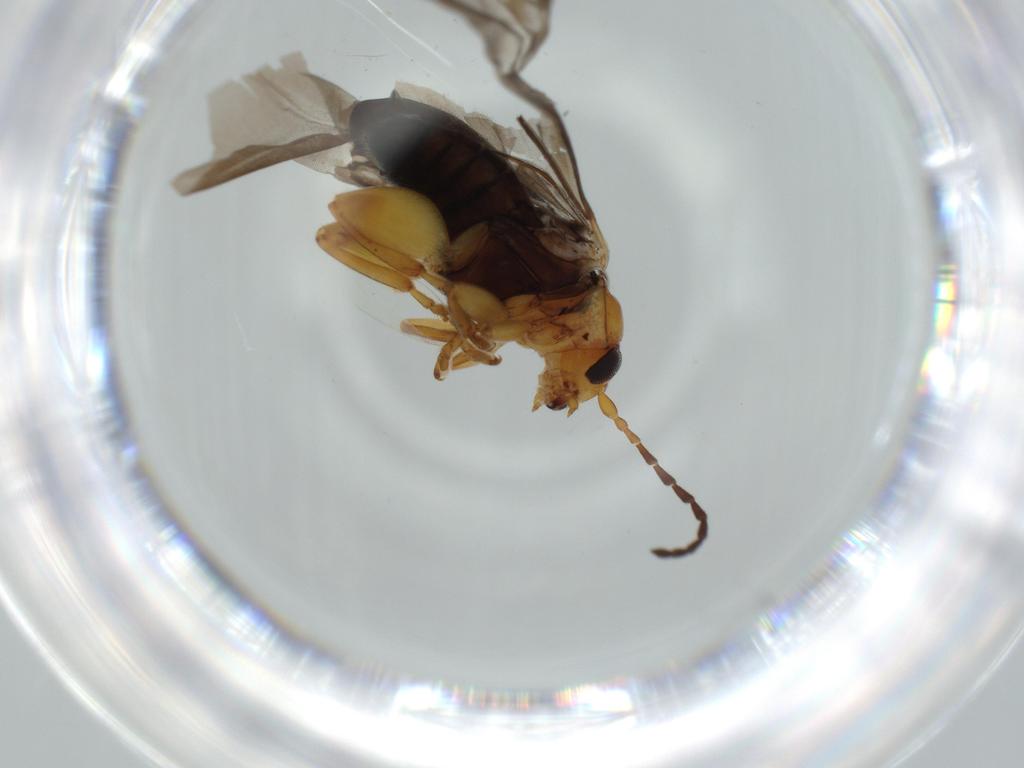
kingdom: Animalia
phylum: Arthropoda
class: Insecta
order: Coleoptera
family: Chrysomelidae
